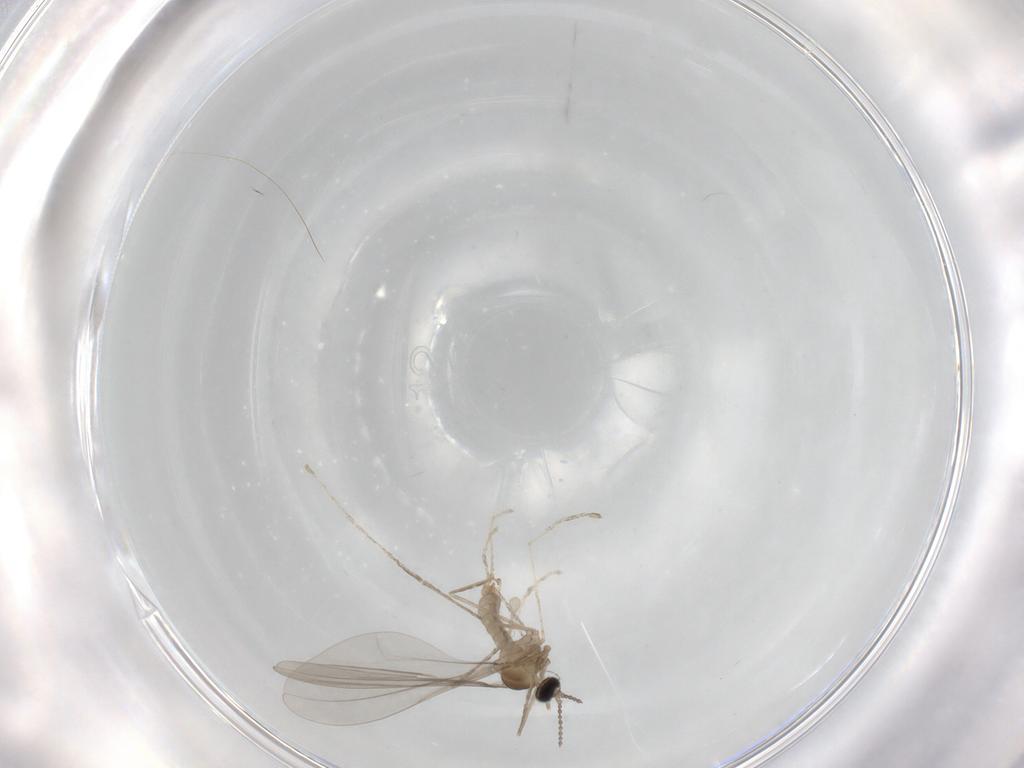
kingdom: Animalia
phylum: Arthropoda
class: Insecta
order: Diptera
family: Cecidomyiidae
